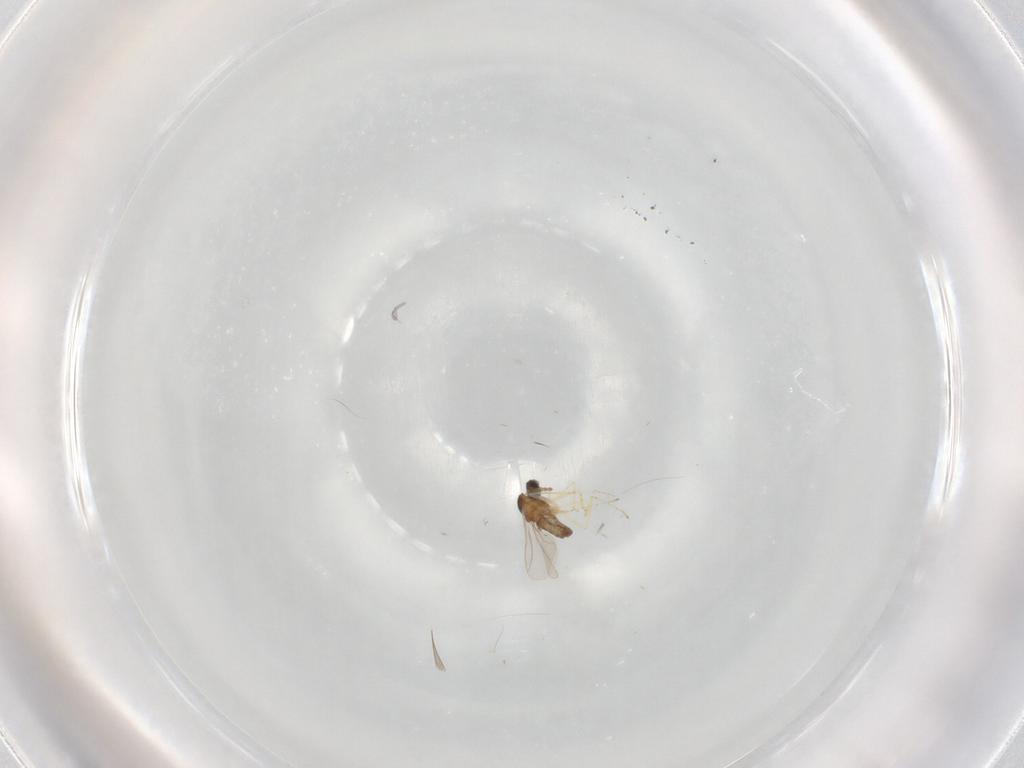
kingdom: Animalia
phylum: Arthropoda
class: Insecta
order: Diptera
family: Cecidomyiidae
